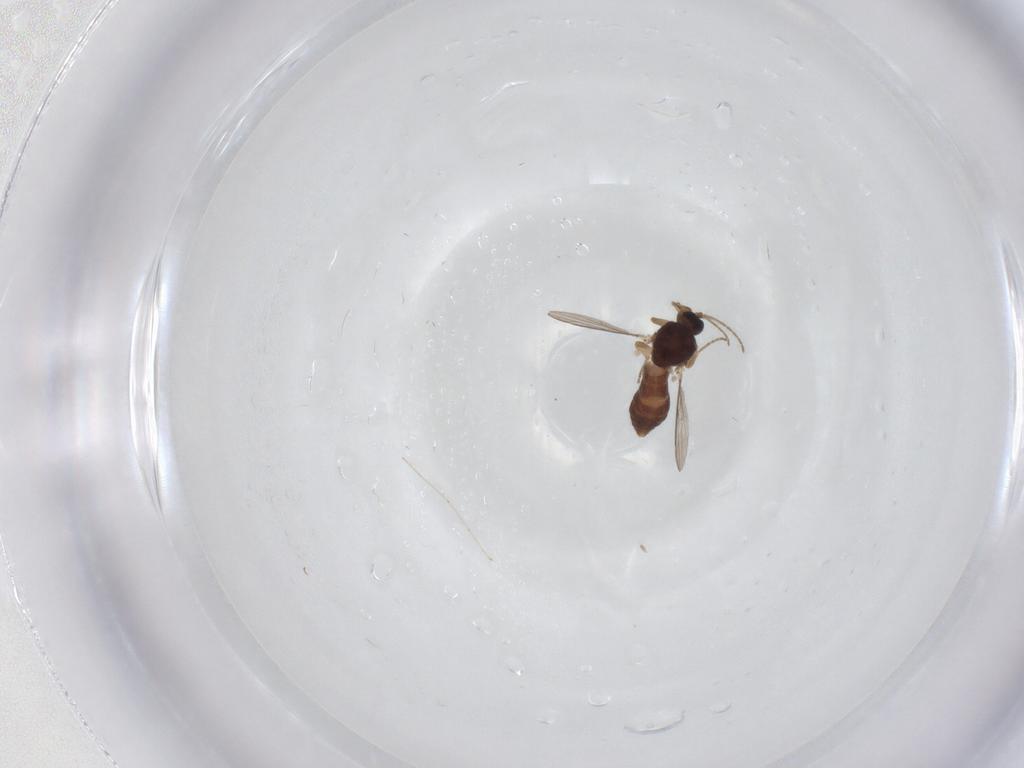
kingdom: Animalia
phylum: Arthropoda
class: Insecta
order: Diptera
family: Ceratopogonidae
